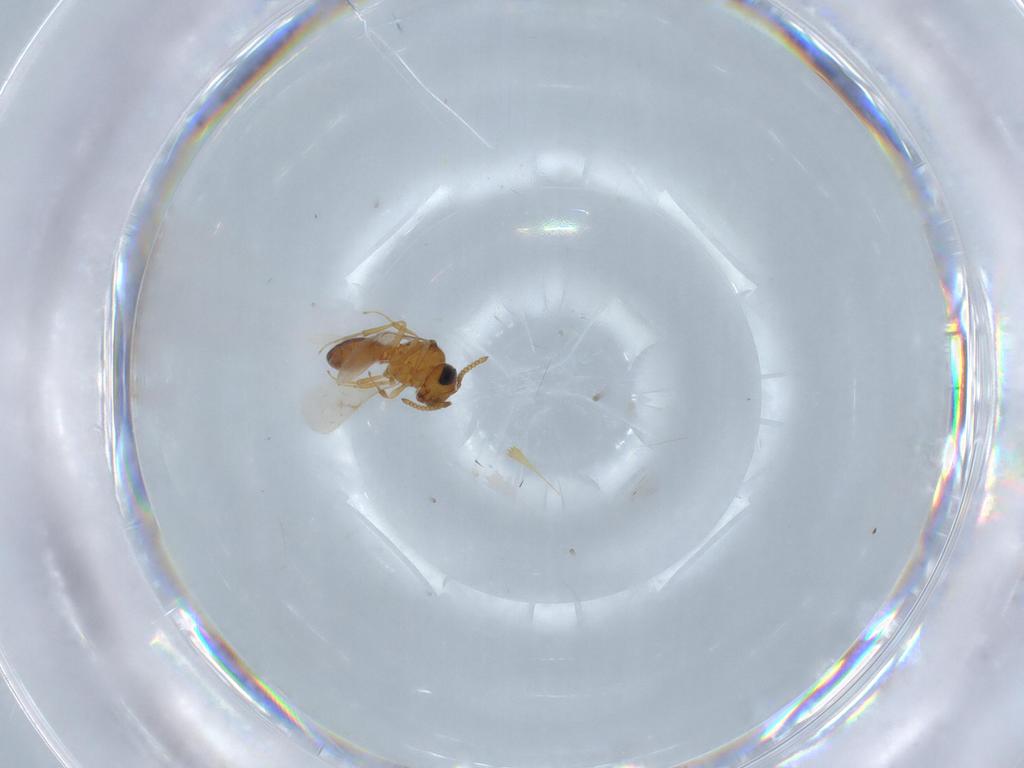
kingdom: Animalia
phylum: Arthropoda
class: Insecta
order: Hymenoptera
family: Scelionidae
